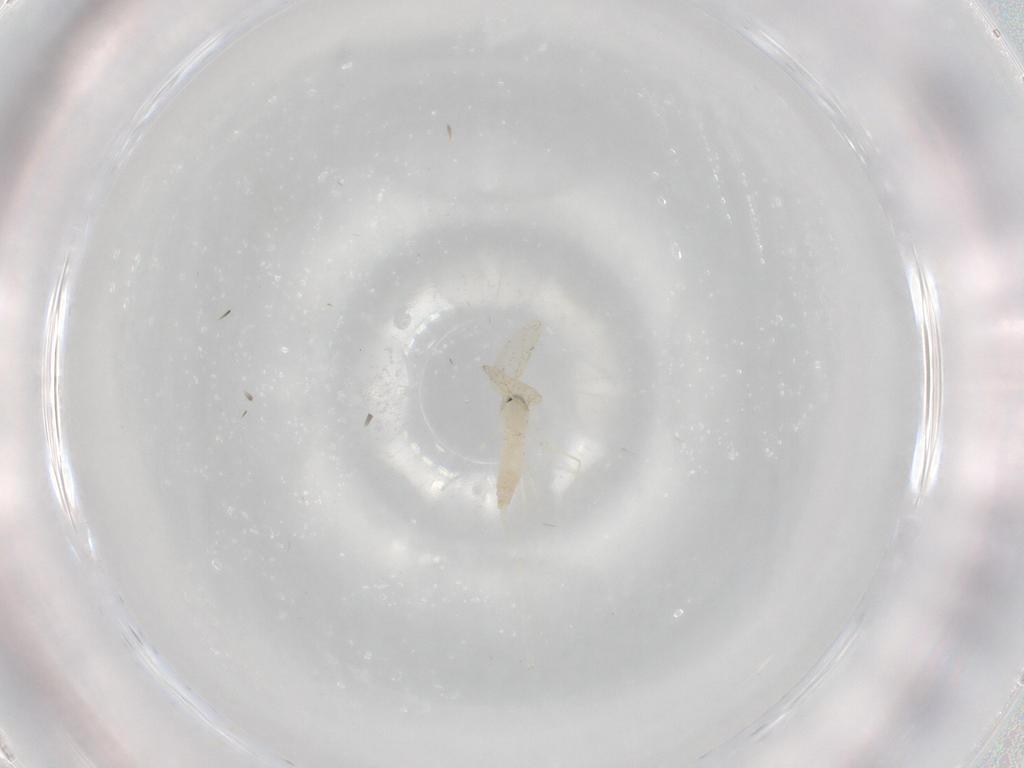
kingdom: Animalia
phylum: Arthropoda
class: Insecta
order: Diptera
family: Cecidomyiidae
